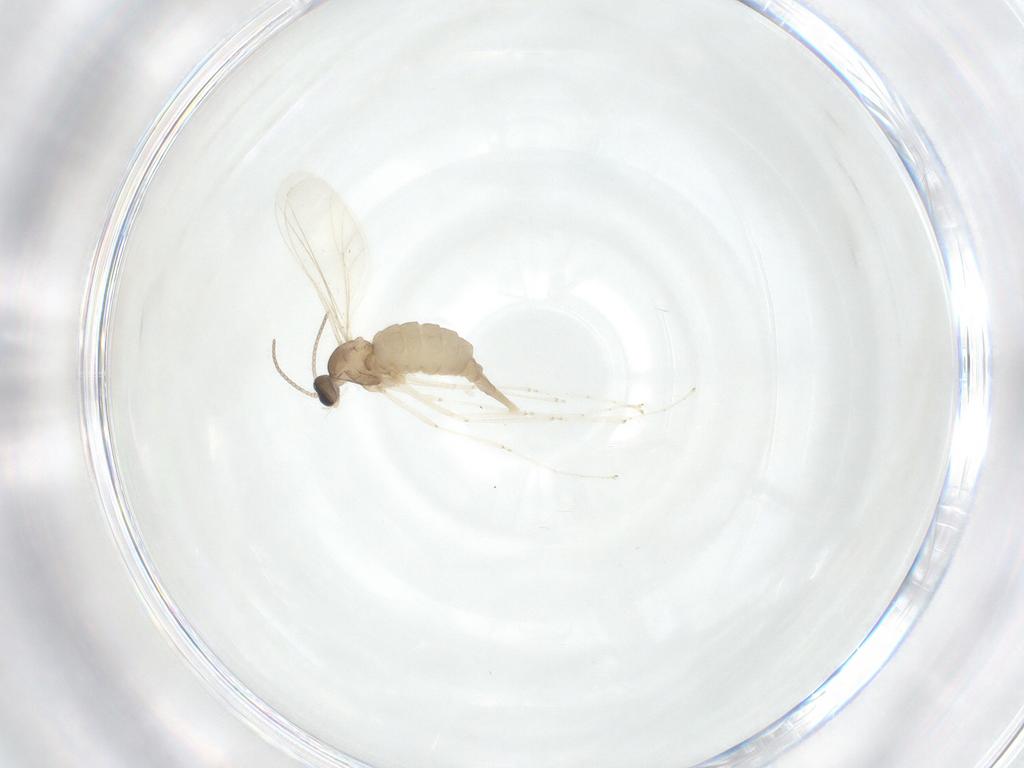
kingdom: Animalia
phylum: Arthropoda
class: Insecta
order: Diptera
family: Cecidomyiidae
